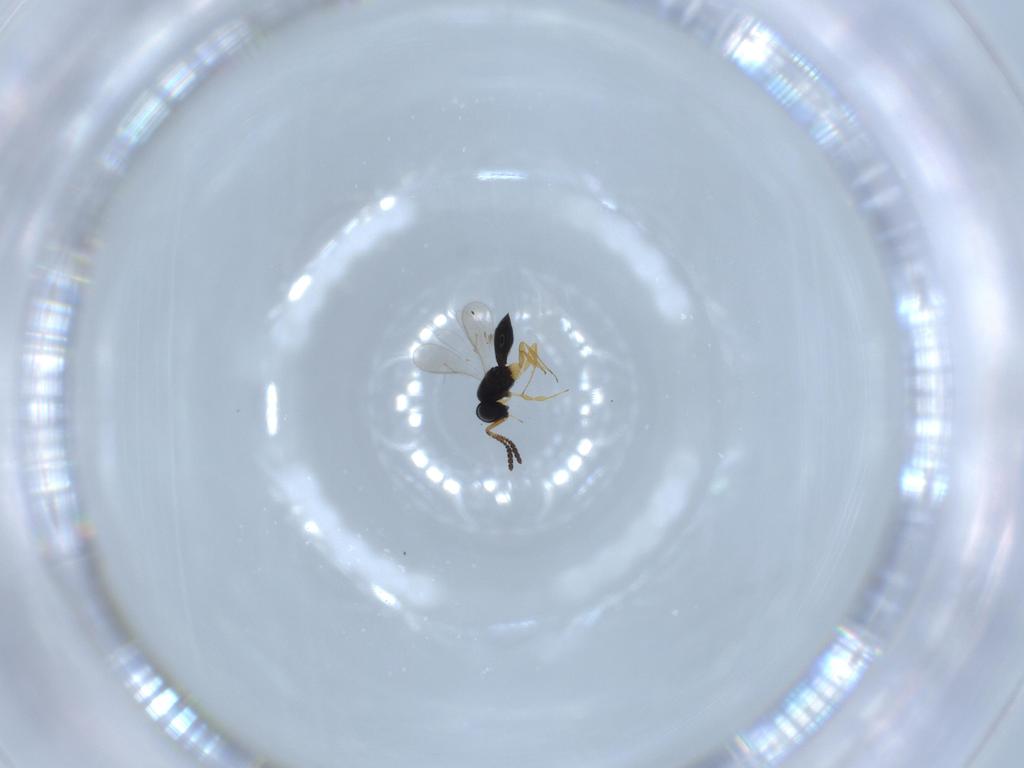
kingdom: Animalia
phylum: Arthropoda
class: Insecta
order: Hymenoptera
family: Scelionidae
